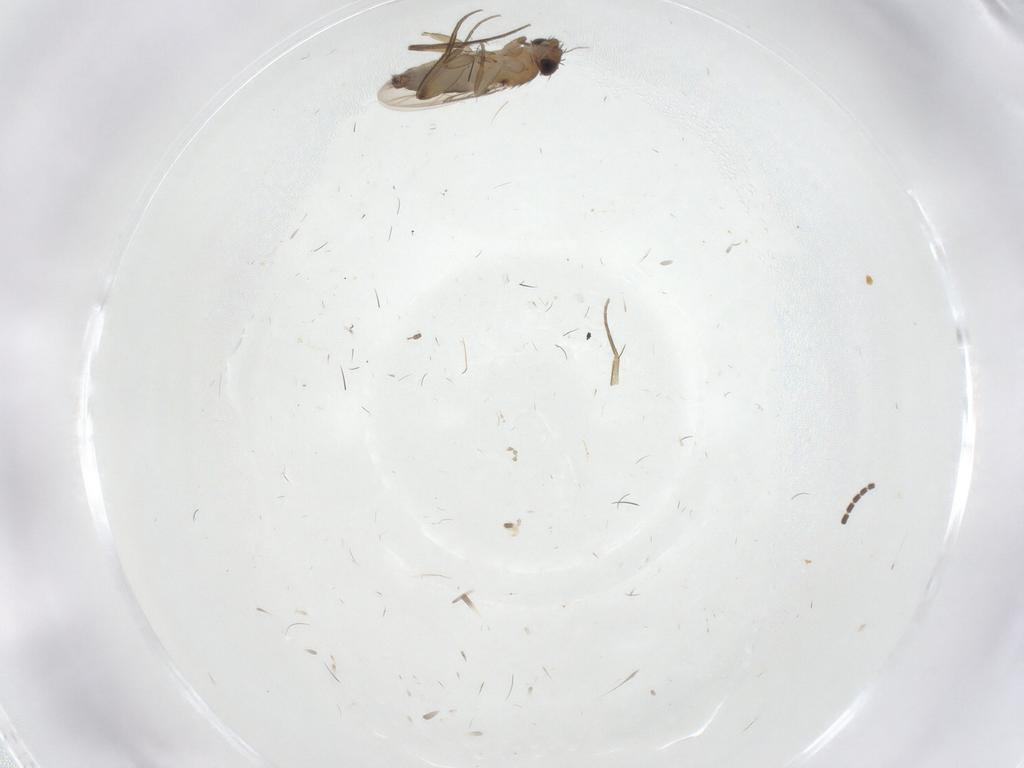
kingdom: Animalia
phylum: Arthropoda
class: Insecta
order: Diptera
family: Phoridae
